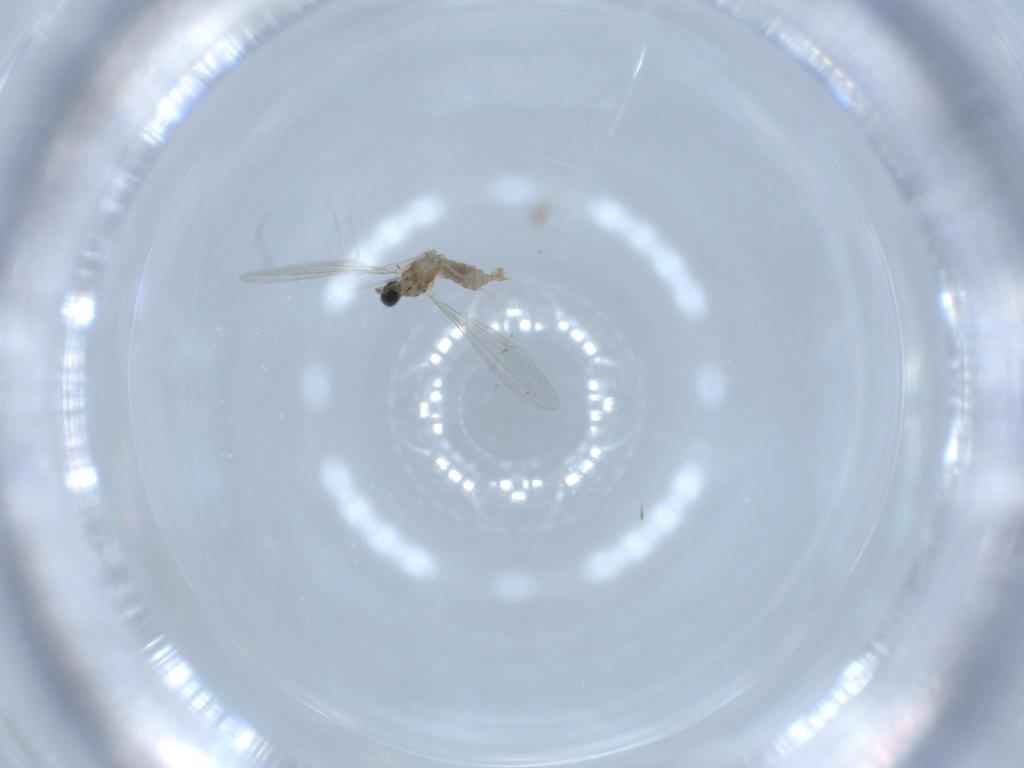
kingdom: Animalia
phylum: Arthropoda
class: Insecta
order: Diptera
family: Cecidomyiidae
